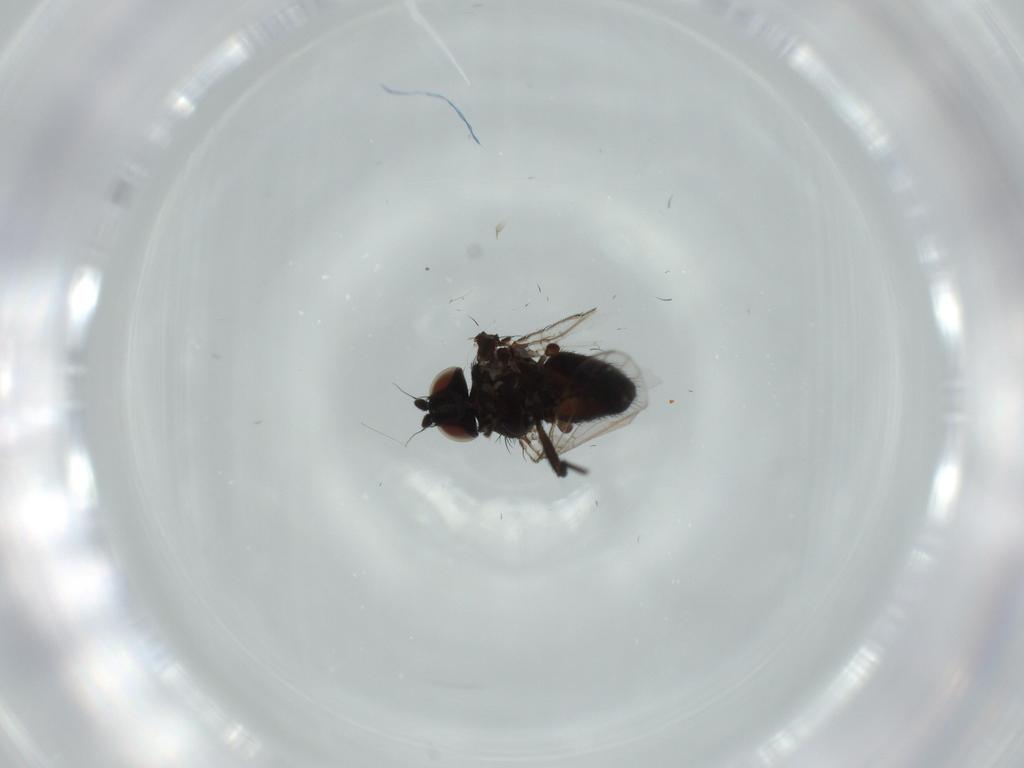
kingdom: Animalia
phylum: Arthropoda
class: Insecta
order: Diptera
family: Milichiidae
